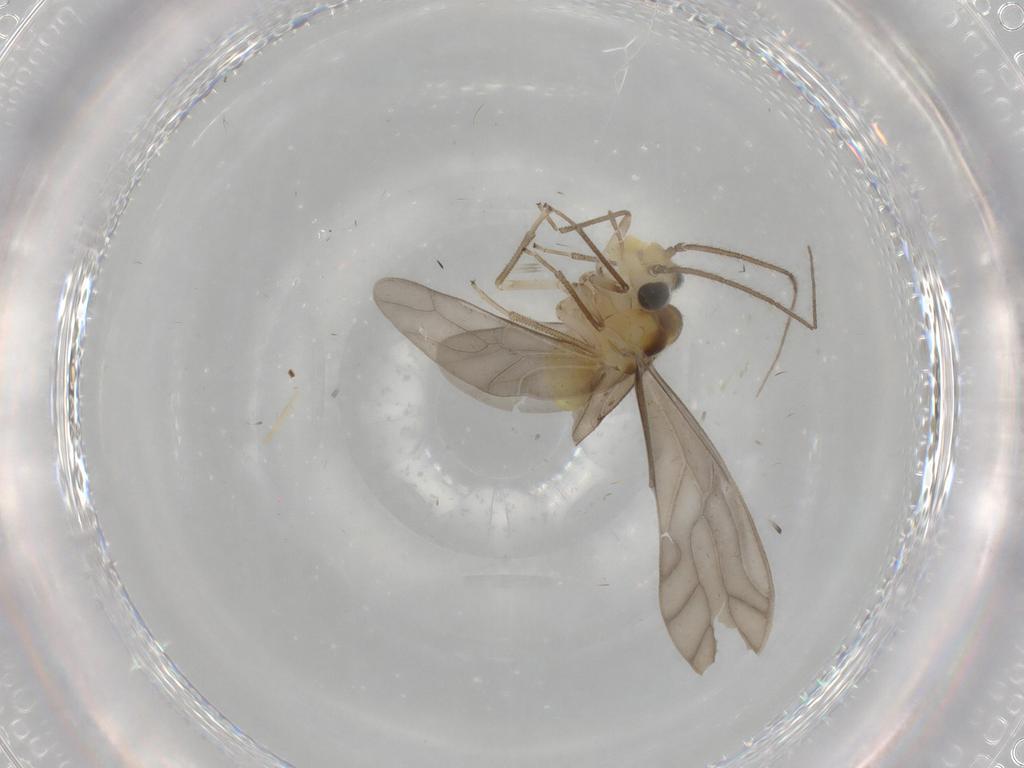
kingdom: Animalia
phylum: Arthropoda
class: Insecta
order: Psocodea
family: Caeciliusidae
